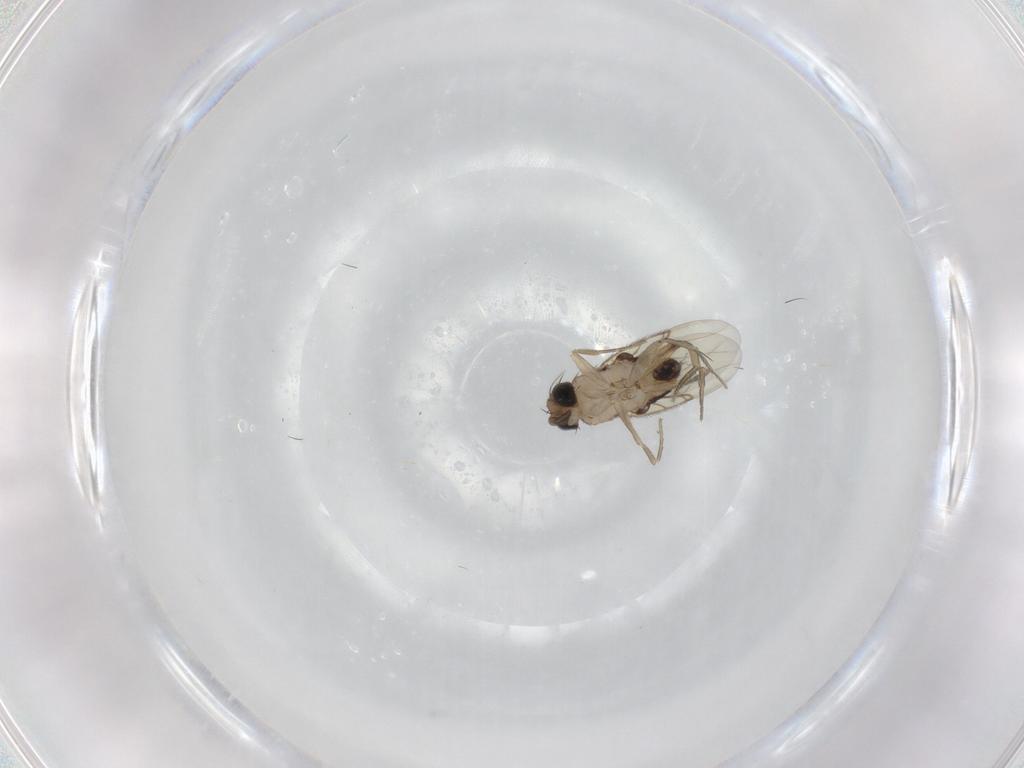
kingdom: Animalia
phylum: Arthropoda
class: Insecta
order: Diptera
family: Phoridae
